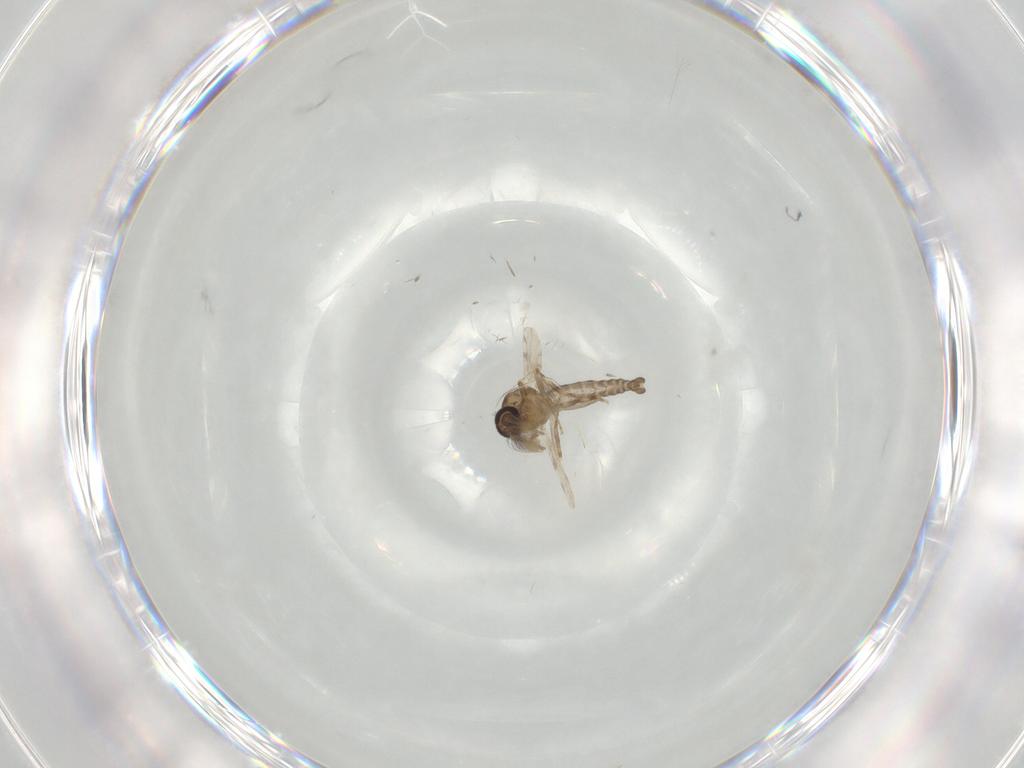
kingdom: Animalia
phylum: Arthropoda
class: Insecta
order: Diptera
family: Ceratopogonidae
